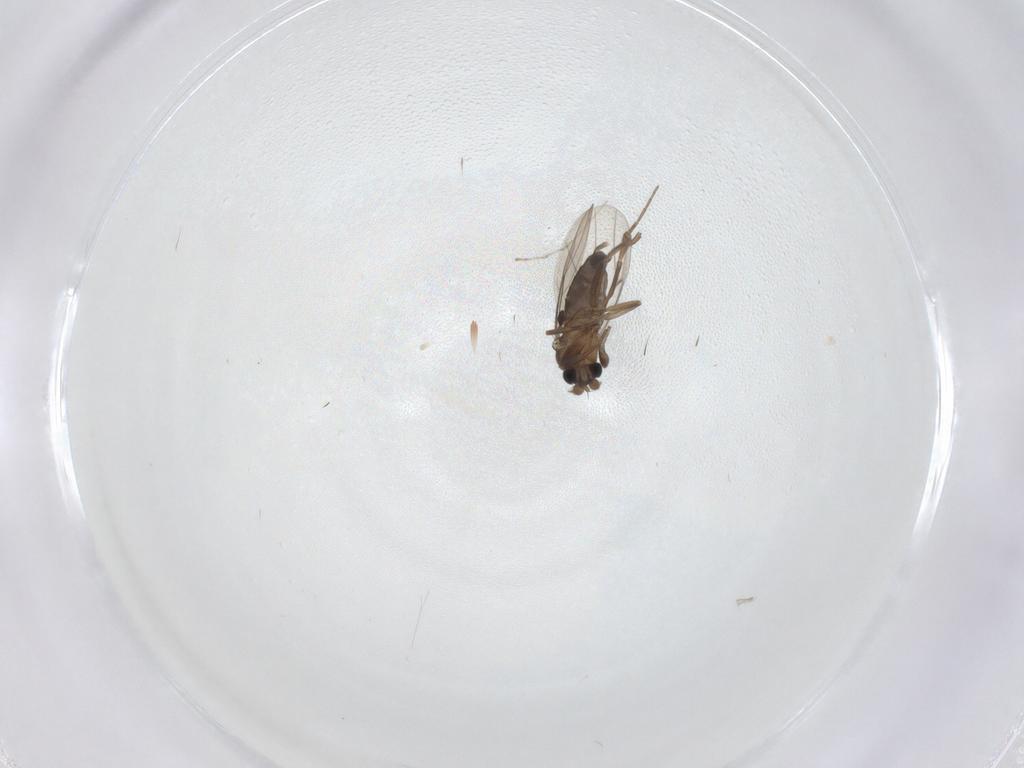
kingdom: Animalia
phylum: Arthropoda
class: Insecta
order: Diptera
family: Phoridae
